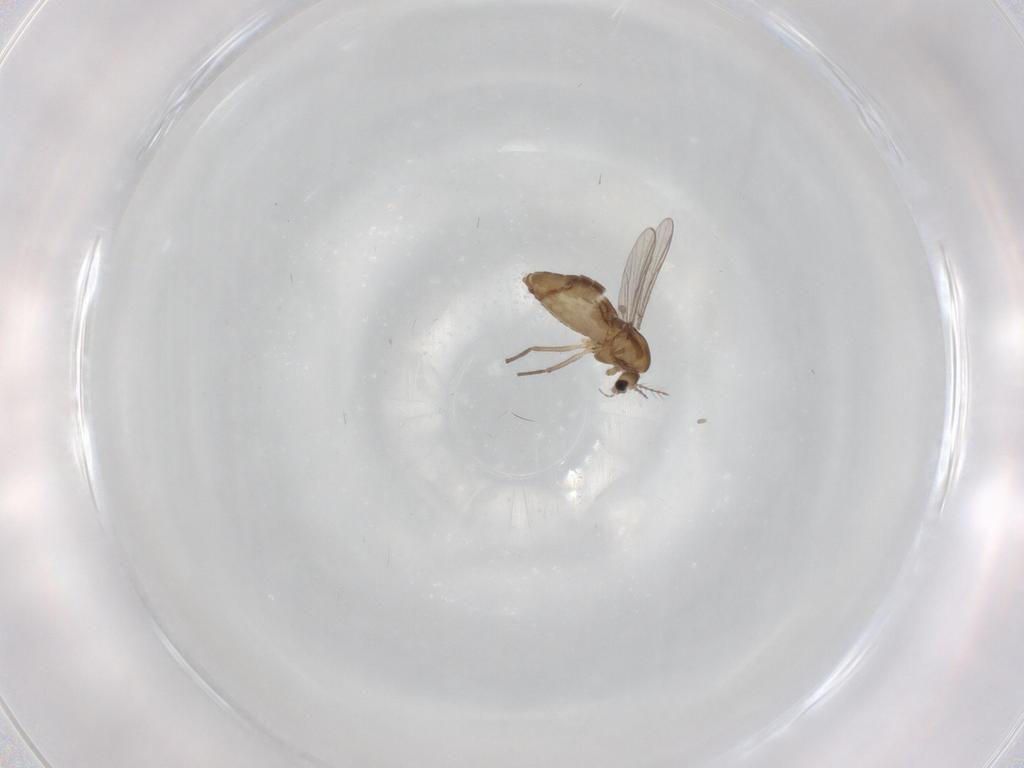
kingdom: Animalia
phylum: Arthropoda
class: Insecta
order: Diptera
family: Chironomidae
